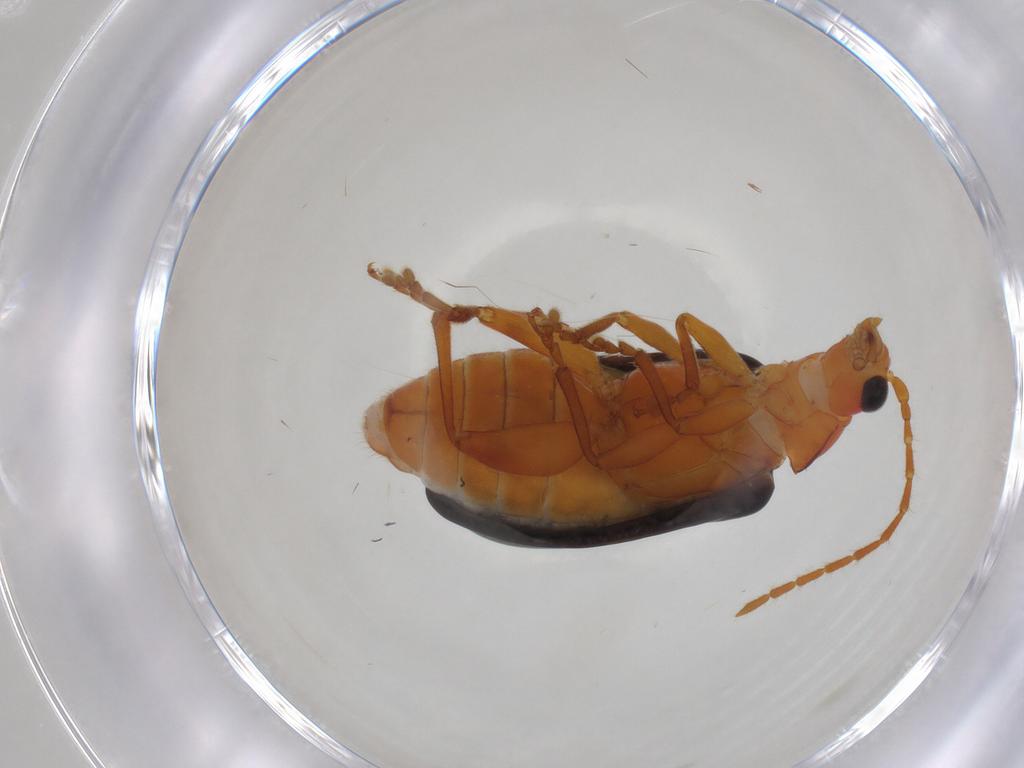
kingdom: Animalia
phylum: Arthropoda
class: Insecta
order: Coleoptera
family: Chrysomelidae
